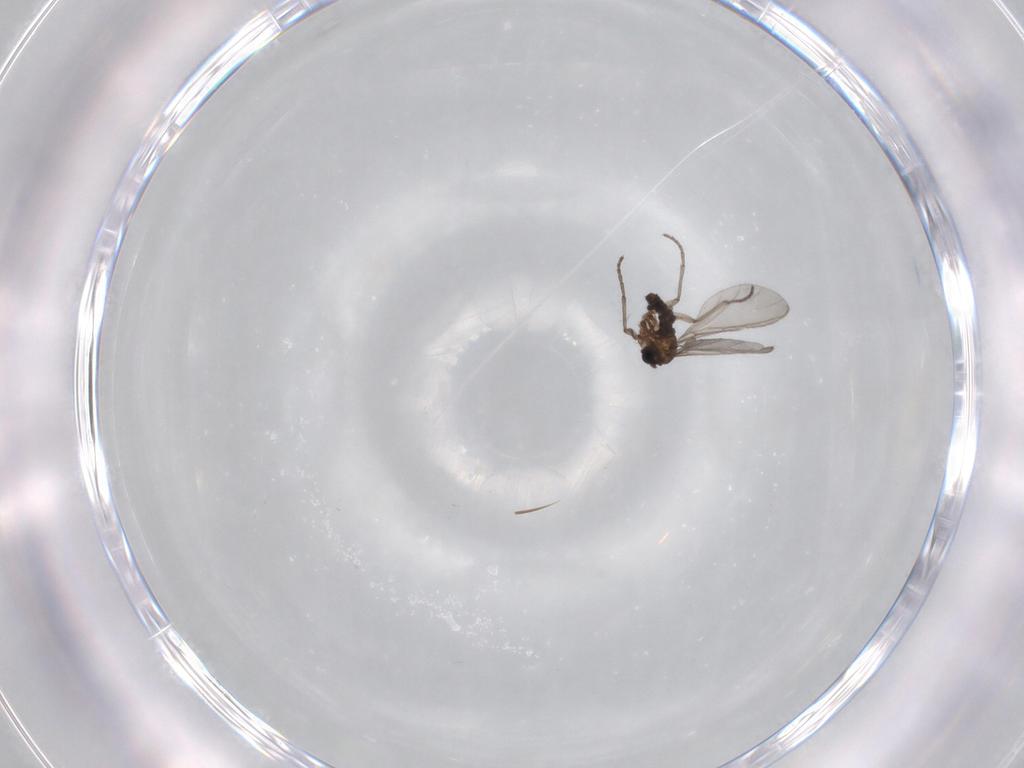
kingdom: Animalia
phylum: Arthropoda
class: Insecta
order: Diptera
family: Sciaridae
